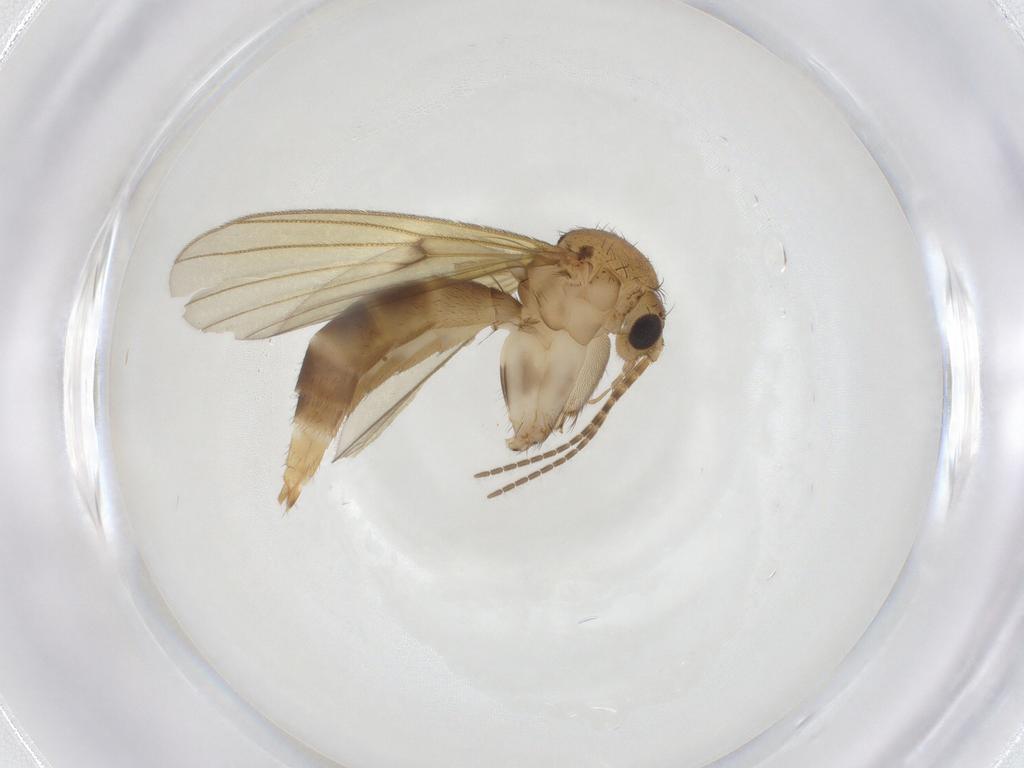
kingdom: Animalia
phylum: Arthropoda
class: Insecta
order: Diptera
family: Mycetophilidae
